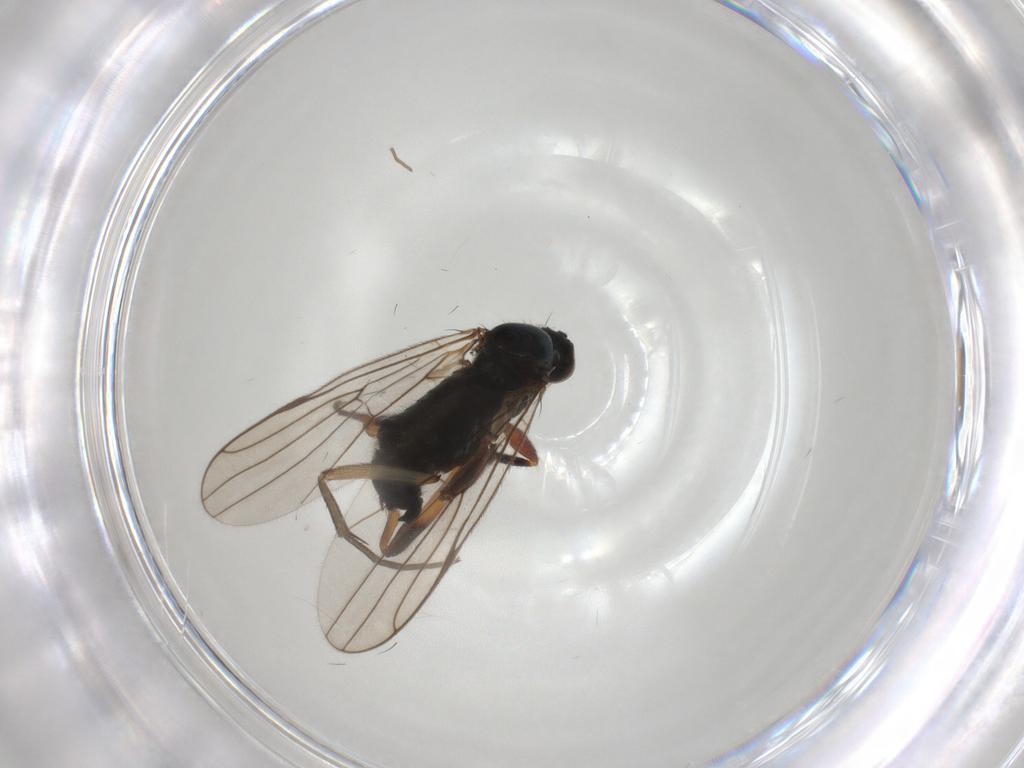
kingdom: Animalia
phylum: Arthropoda
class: Insecta
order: Diptera
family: Hybotidae
